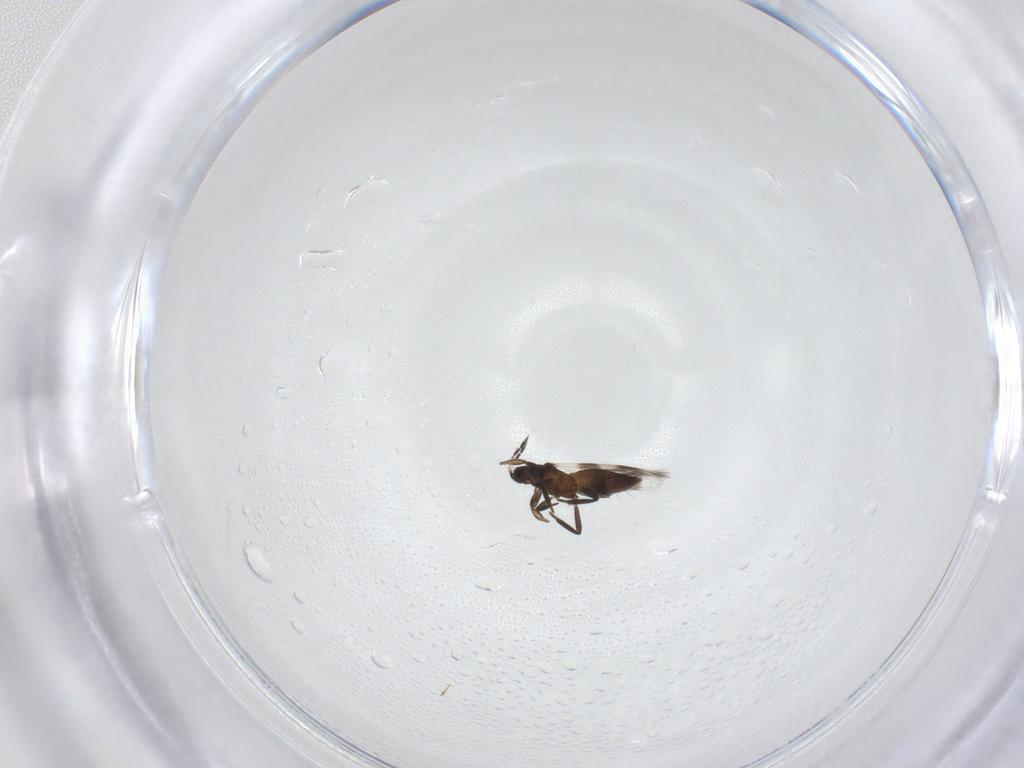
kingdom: Animalia
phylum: Arthropoda
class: Insecta
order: Thysanoptera
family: Aeolothripidae
